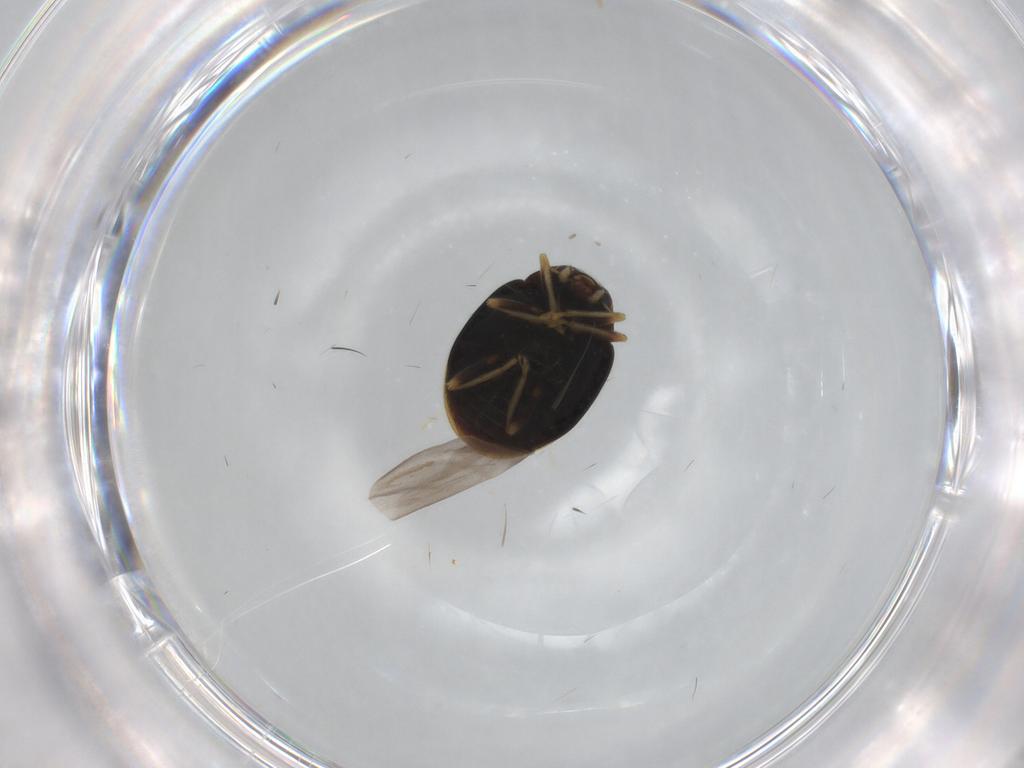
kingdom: Animalia
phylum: Arthropoda
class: Insecta
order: Coleoptera
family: Coccinellidae
